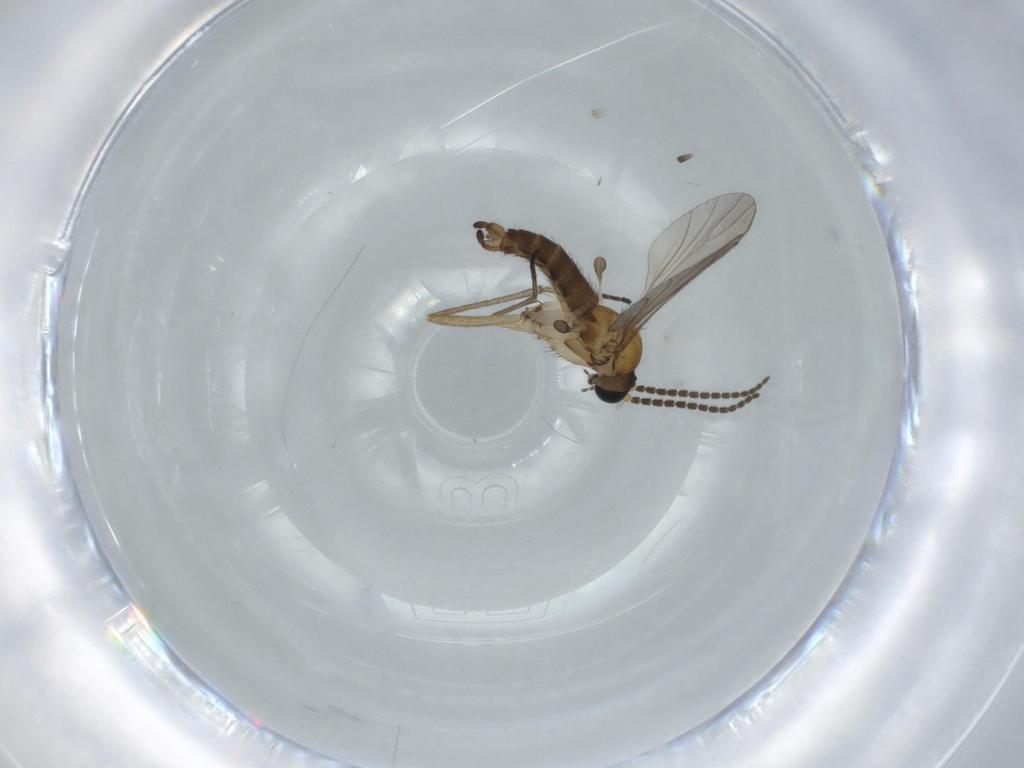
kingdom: Animalia
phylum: Arthropoda
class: Insecta
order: Diptera
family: Sciaridae
